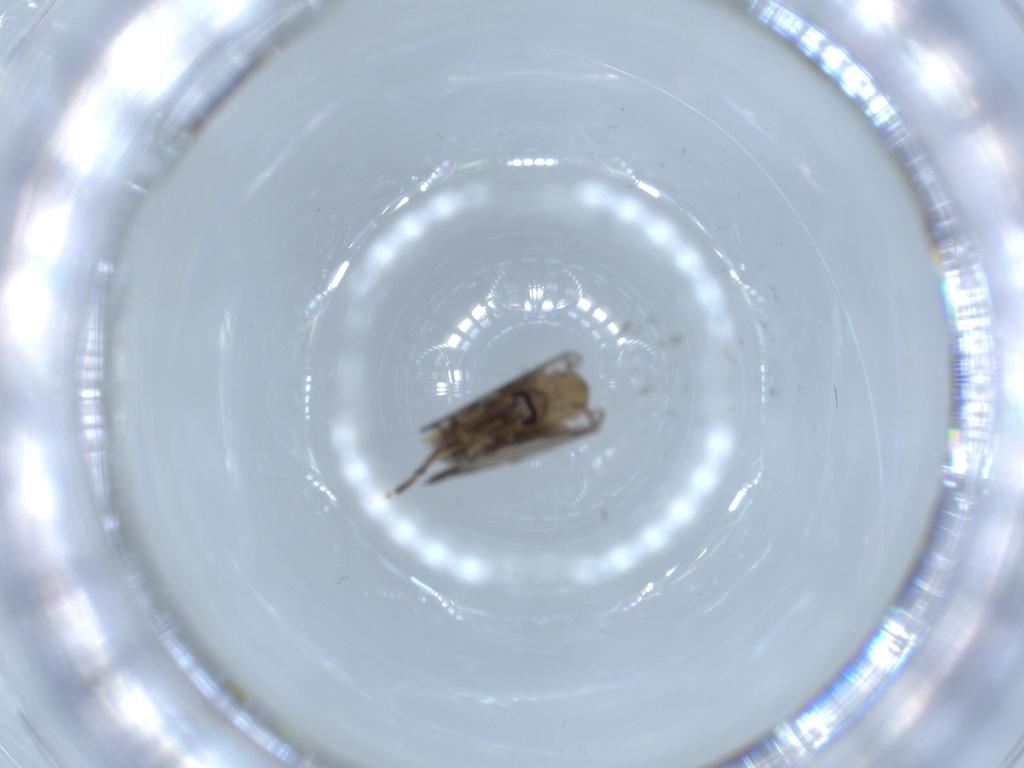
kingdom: Animalia
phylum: Arthropoda
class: Insecta
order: Diptera
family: Psychodidae
